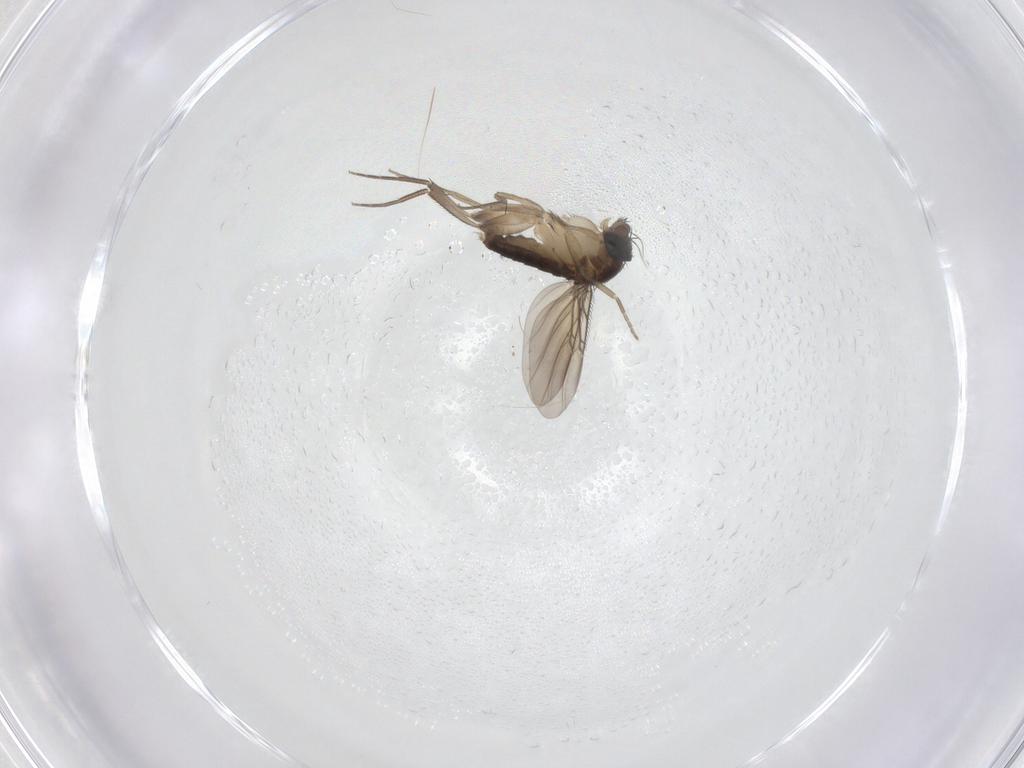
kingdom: Animalia
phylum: Arthropoda
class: Insecta
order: Diptera
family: Phoridae
